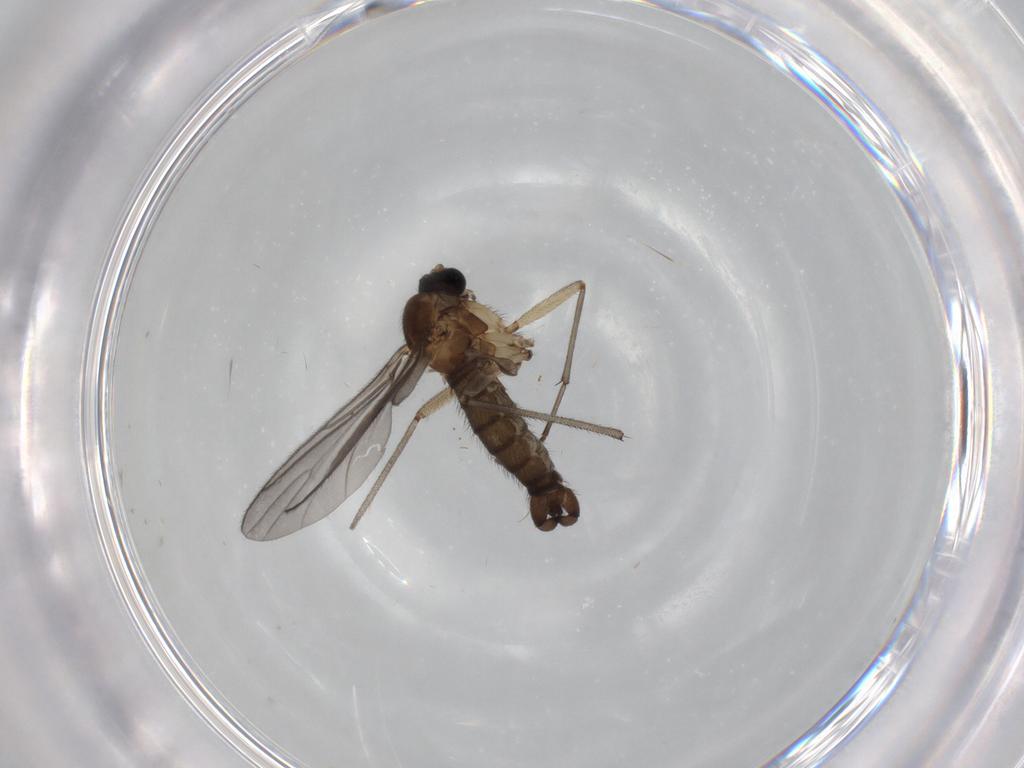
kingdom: Animalia
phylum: Arthropoda
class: Insecta
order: Diptera
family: Sciaridae
